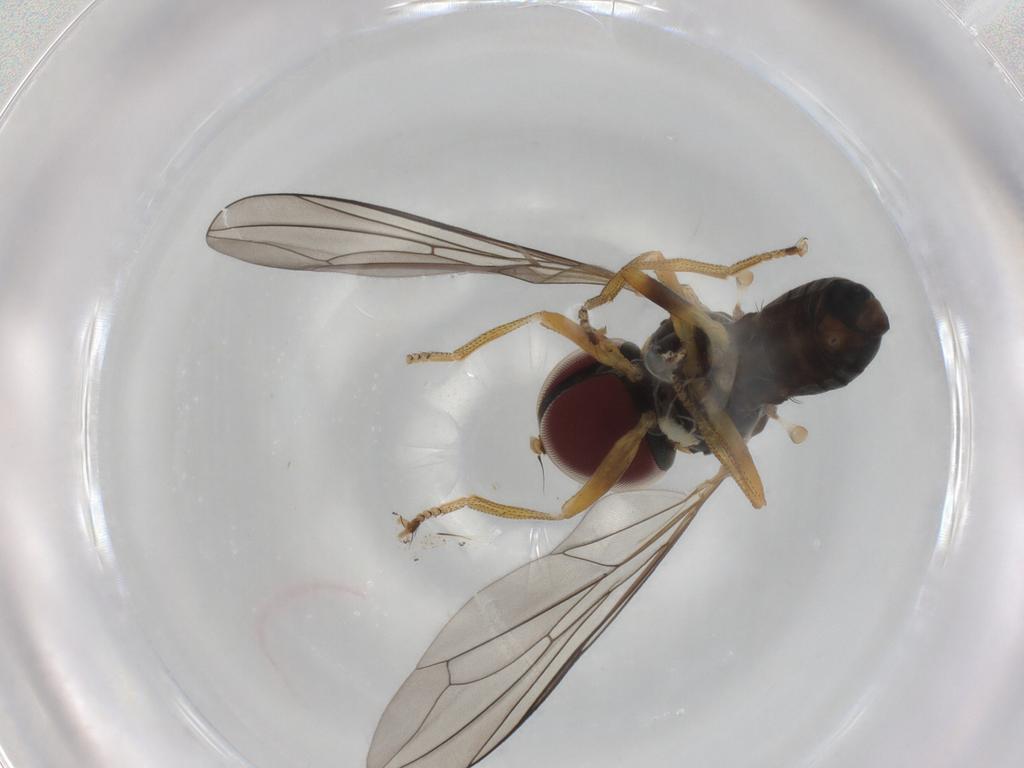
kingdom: Animalia
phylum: Arthropoda
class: Insecta
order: Diptera
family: Pipunculidae
